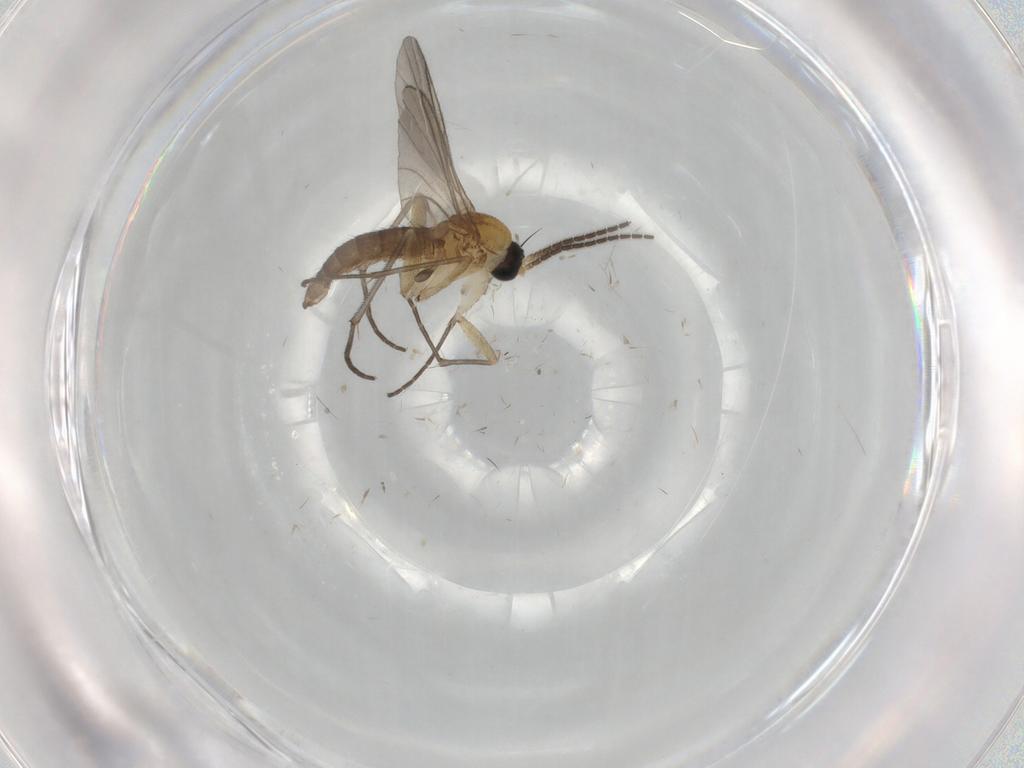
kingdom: Animalia
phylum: Arthropoda
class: Insecta
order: Diptera
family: Sciaridae
